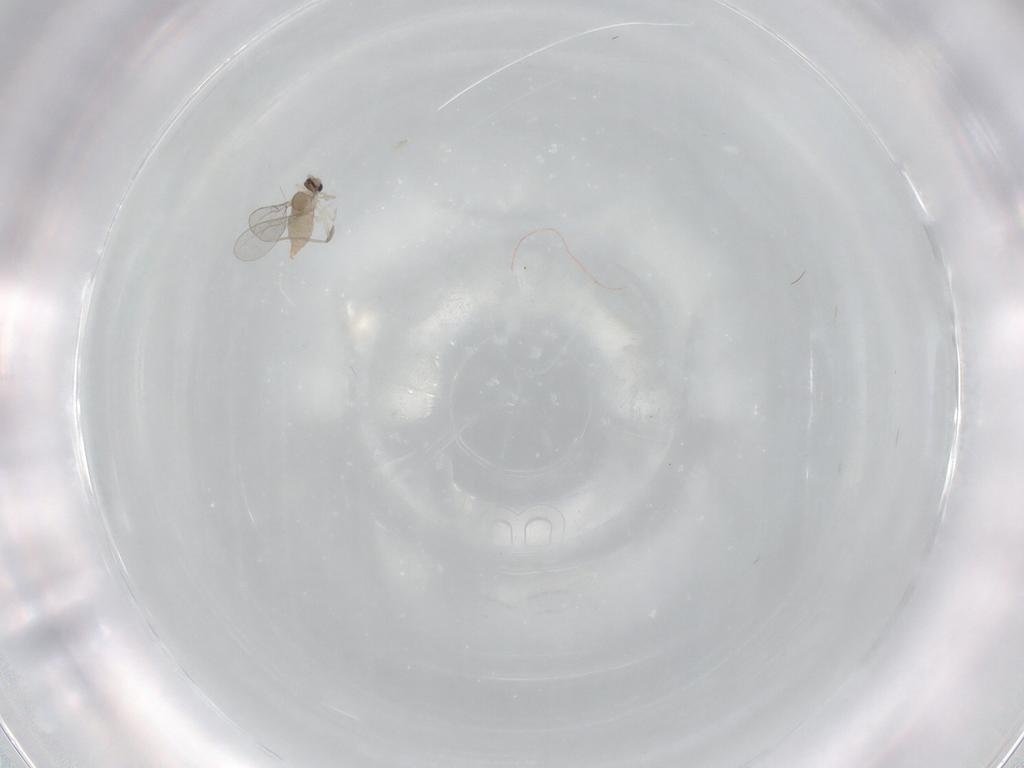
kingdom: Animalia
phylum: Arthropoda
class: Insecta
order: Diptera
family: Cecidomyiidae
